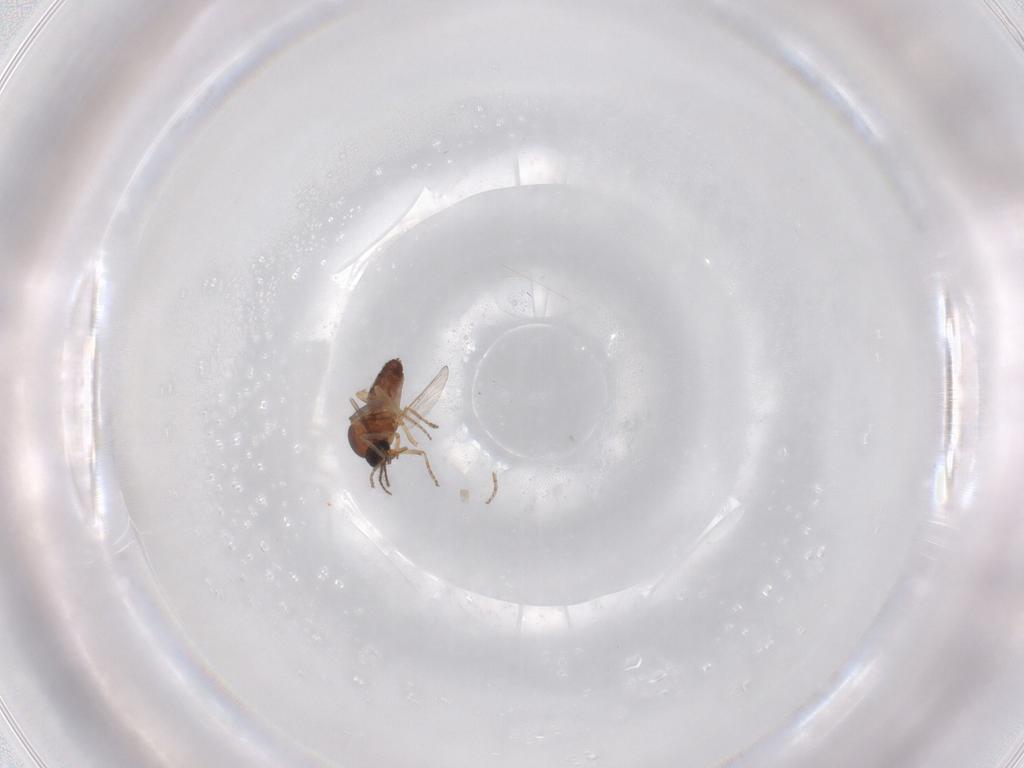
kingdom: Animalia
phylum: Arthropoda
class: Insecta
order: Diptera
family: Sciaridae
